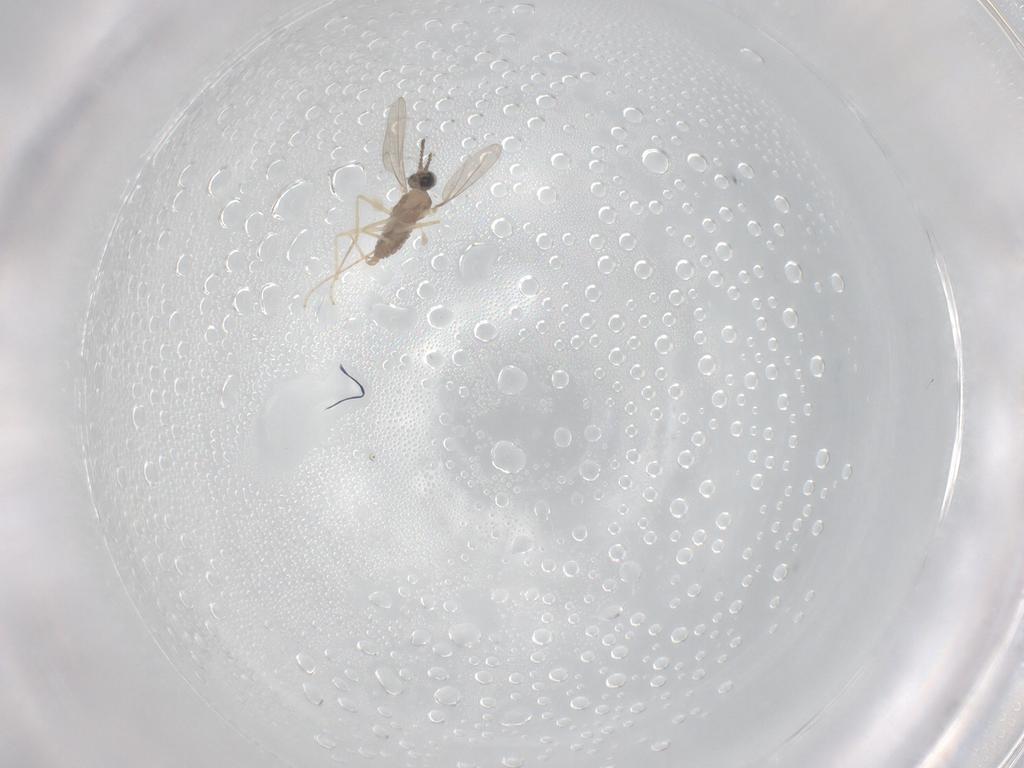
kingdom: Animalia
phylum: Arthropoda
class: Insecta
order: Diptera
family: Cecidomyiidae
